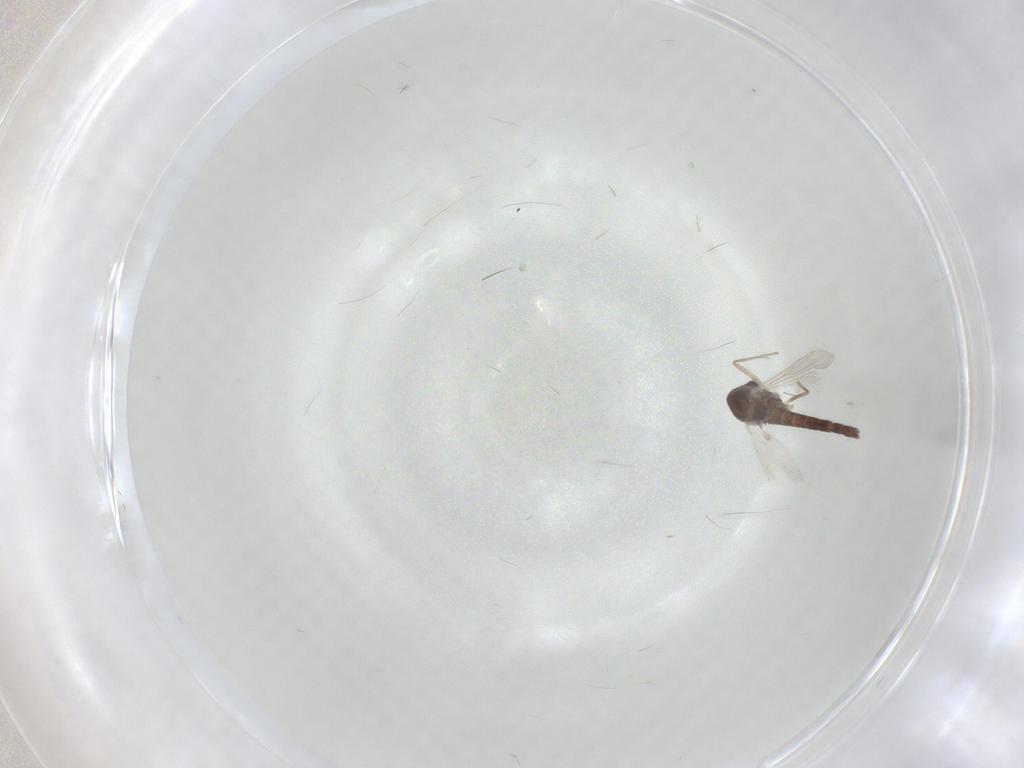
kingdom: Animalia
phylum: Arthropoda
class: Insecta
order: Diptera
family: Chironomidae
